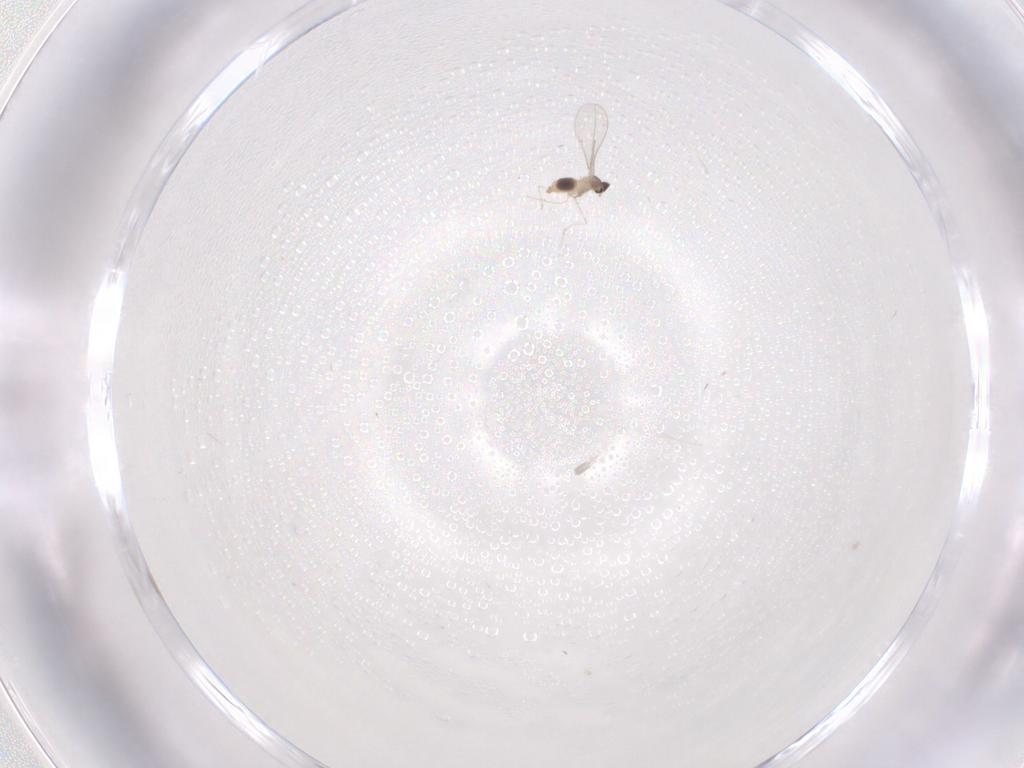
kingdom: Animalia
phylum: Arthropoda
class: Insecta
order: Diptera
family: Cecidomyiidae
